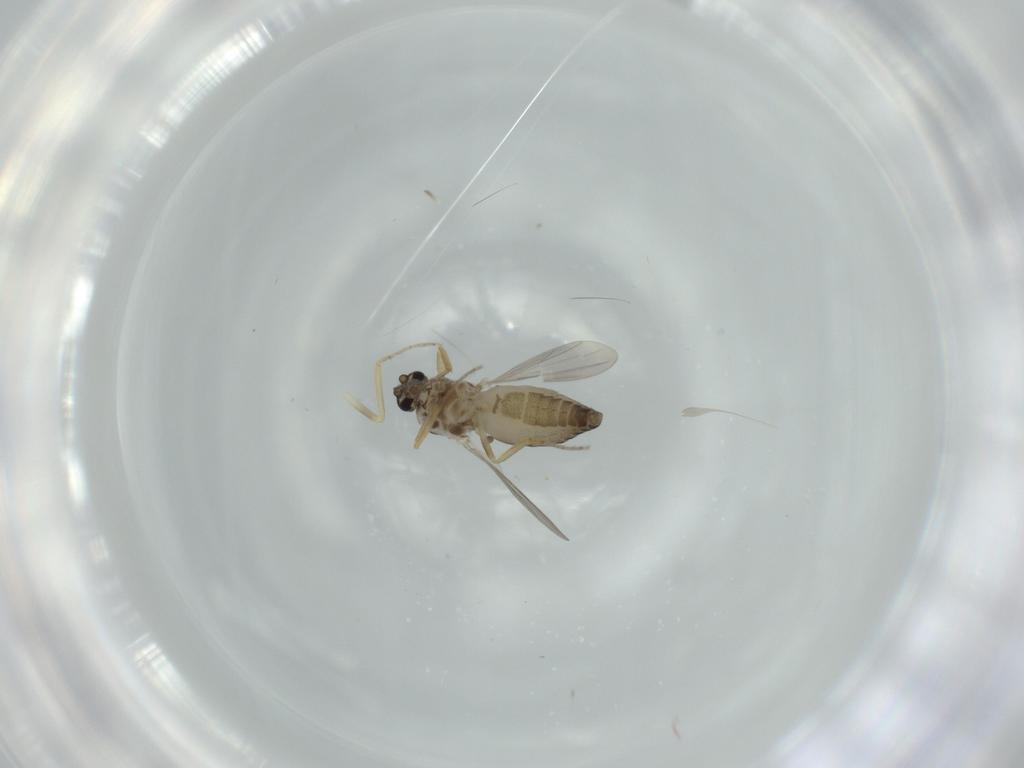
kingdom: Animalia
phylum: Arthropoda
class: Insecta
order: Diptera
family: Ceratopogonidae
